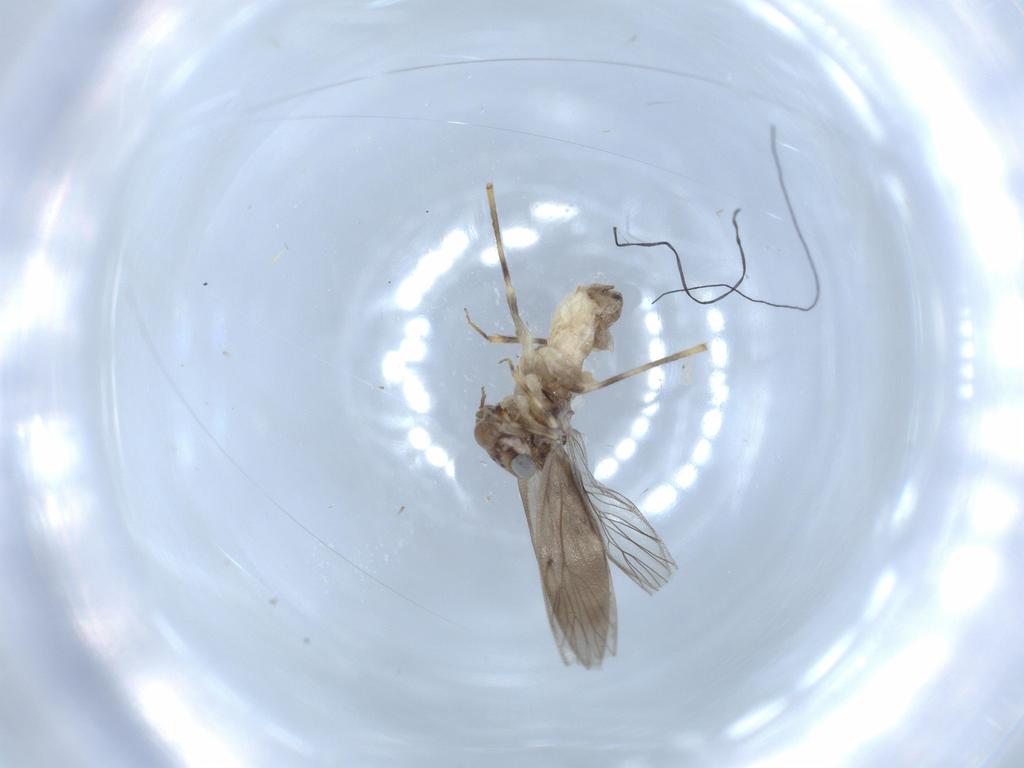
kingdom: Animalia
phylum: Arthropoda
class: Insecta
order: Psocodea
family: Lepidopsocidae
